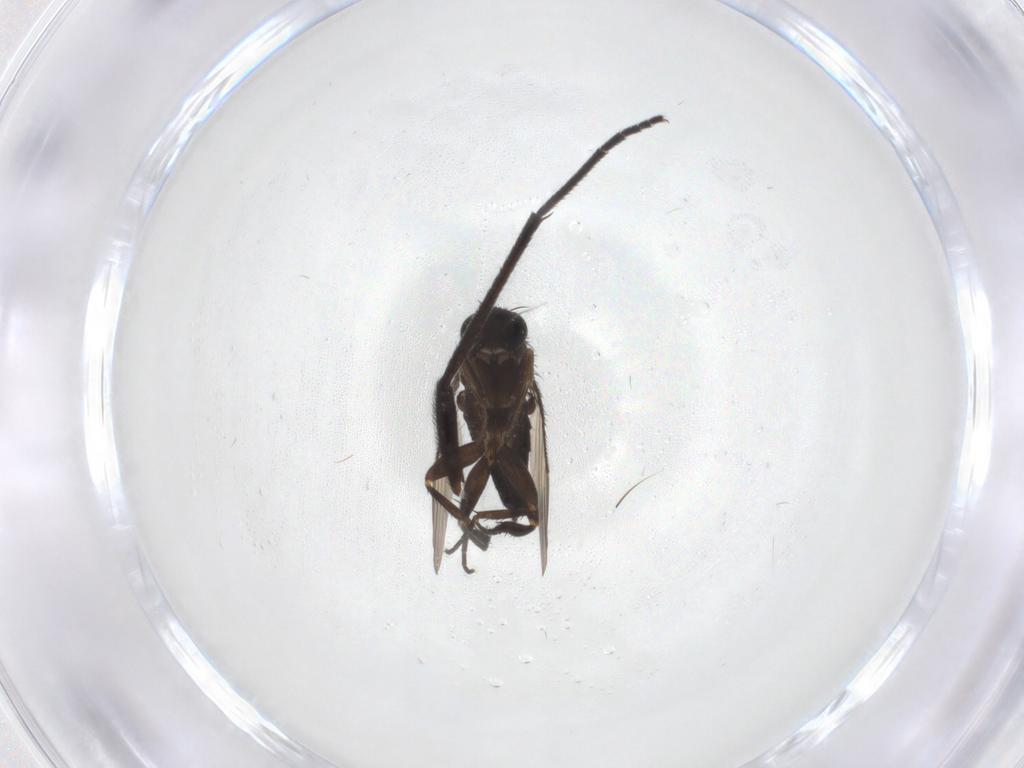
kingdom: Animalia
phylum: Arthropoda
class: Insecta
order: Diptera
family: Phoridae
